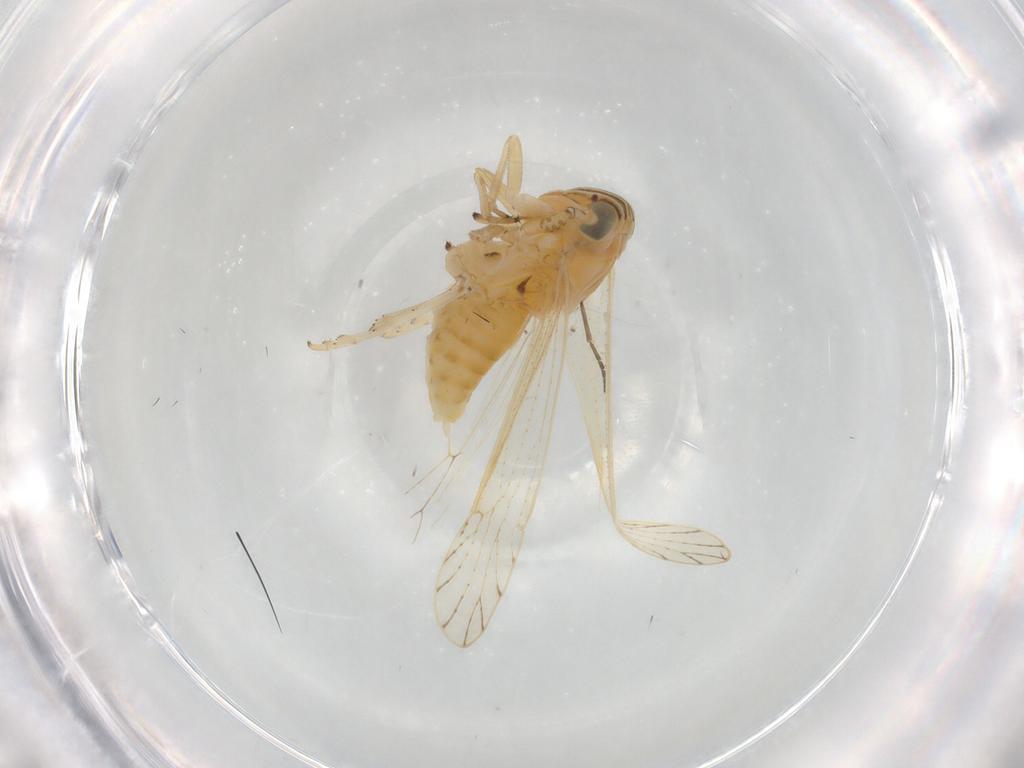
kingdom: Animalia
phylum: Arthropoda
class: Insecta
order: Hemiptera
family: Delphacidae
